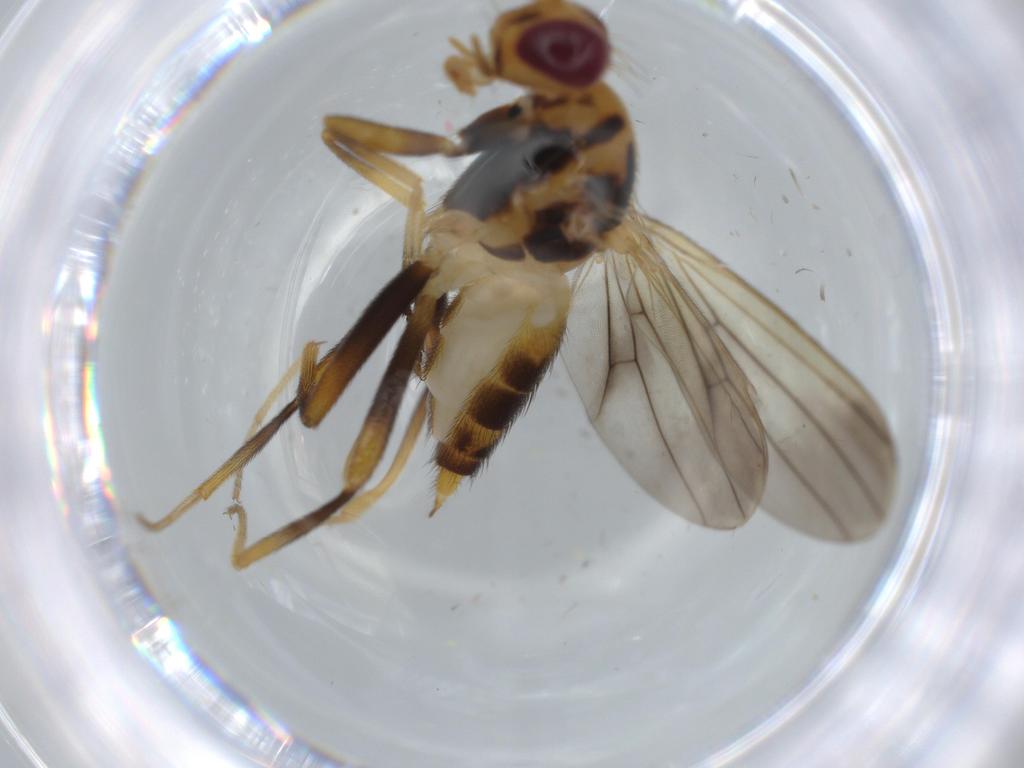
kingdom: Animalia
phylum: Arthropoda
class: Insecta
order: Diptera
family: Clusiidae
